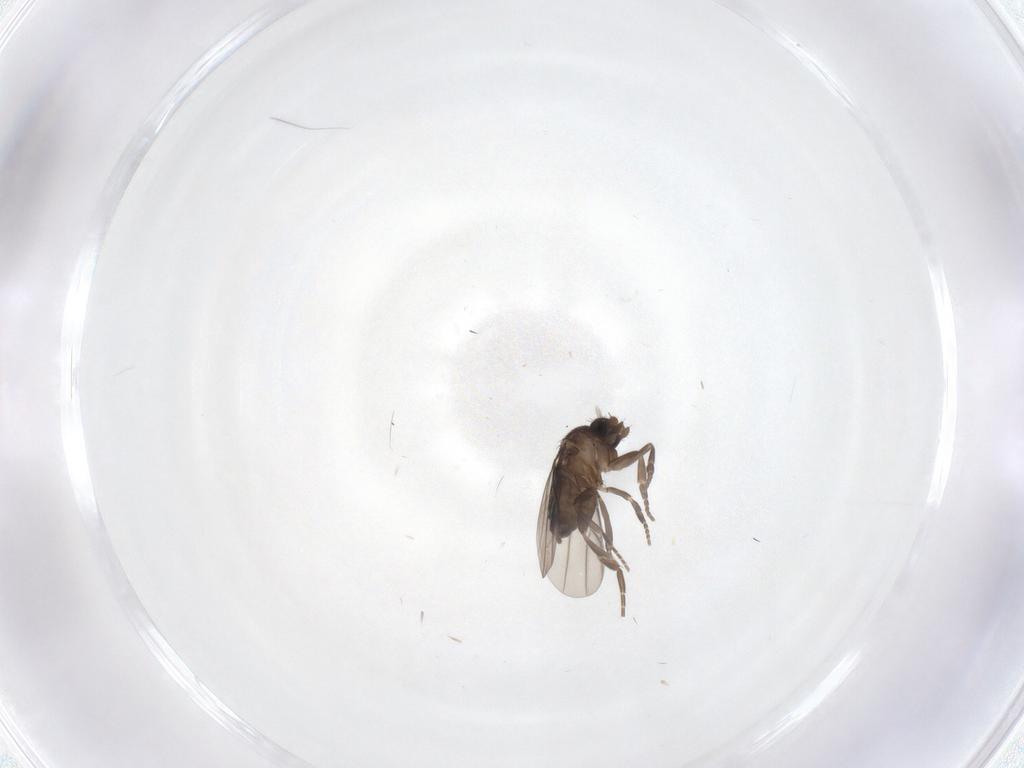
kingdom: Animalia
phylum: Arthropoda
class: Insecta
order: Diptera
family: Phoridae
